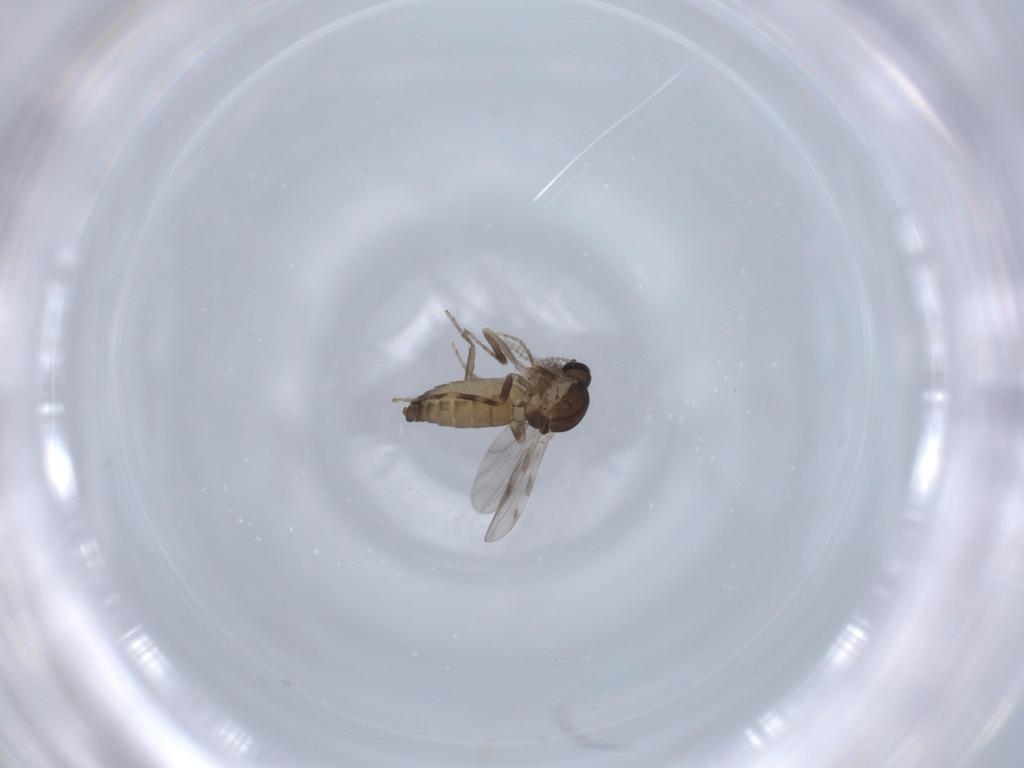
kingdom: Animalia
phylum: Arthropoda
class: Insecta
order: Diptera
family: Ceratopogonidae
